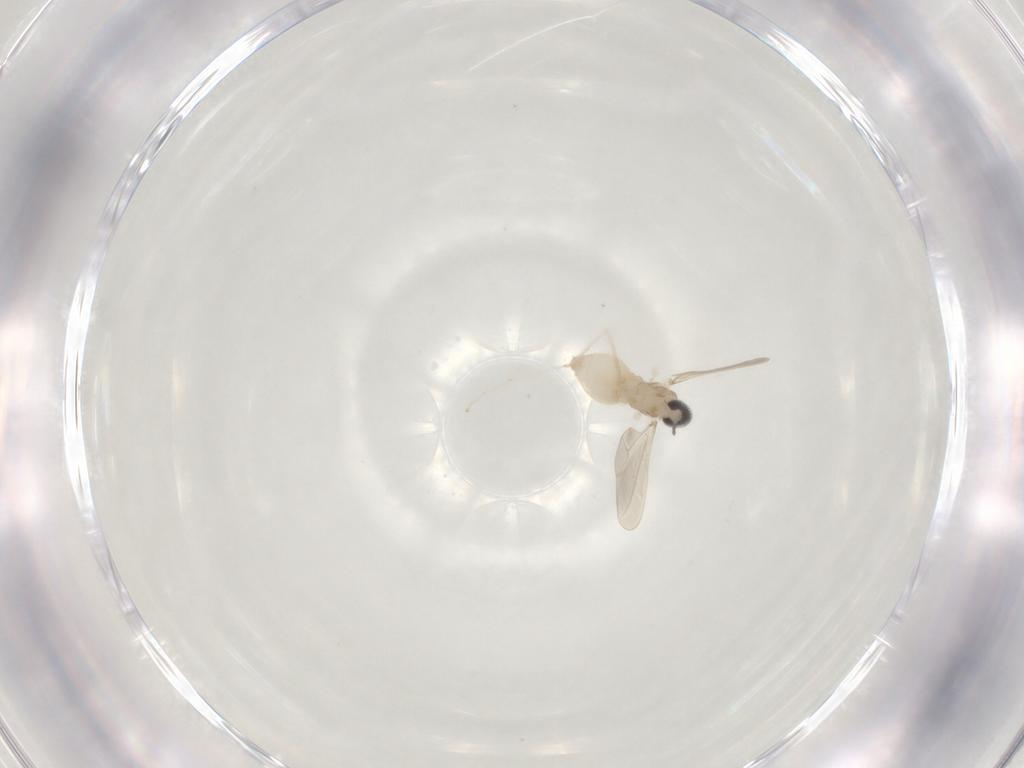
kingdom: Animalia
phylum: Arthropoda
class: Insecta
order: Diptera
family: Cecidomyiidae
